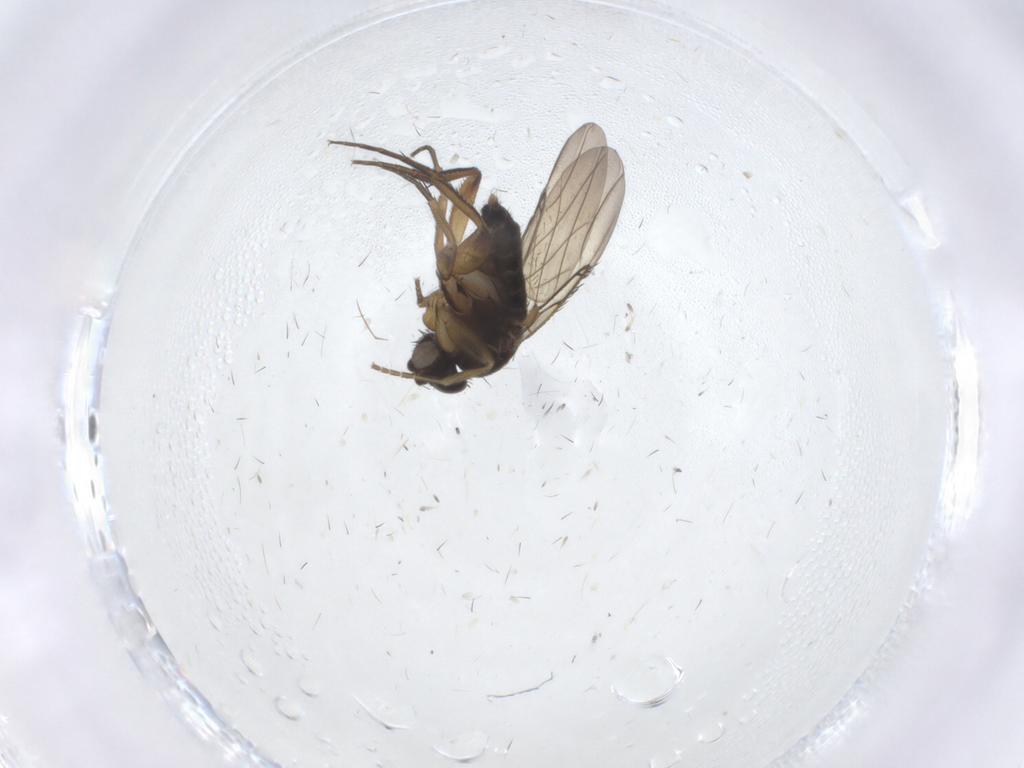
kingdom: Animalia
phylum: Arthropoda
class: Insecta
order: Diptera
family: Phoridae
